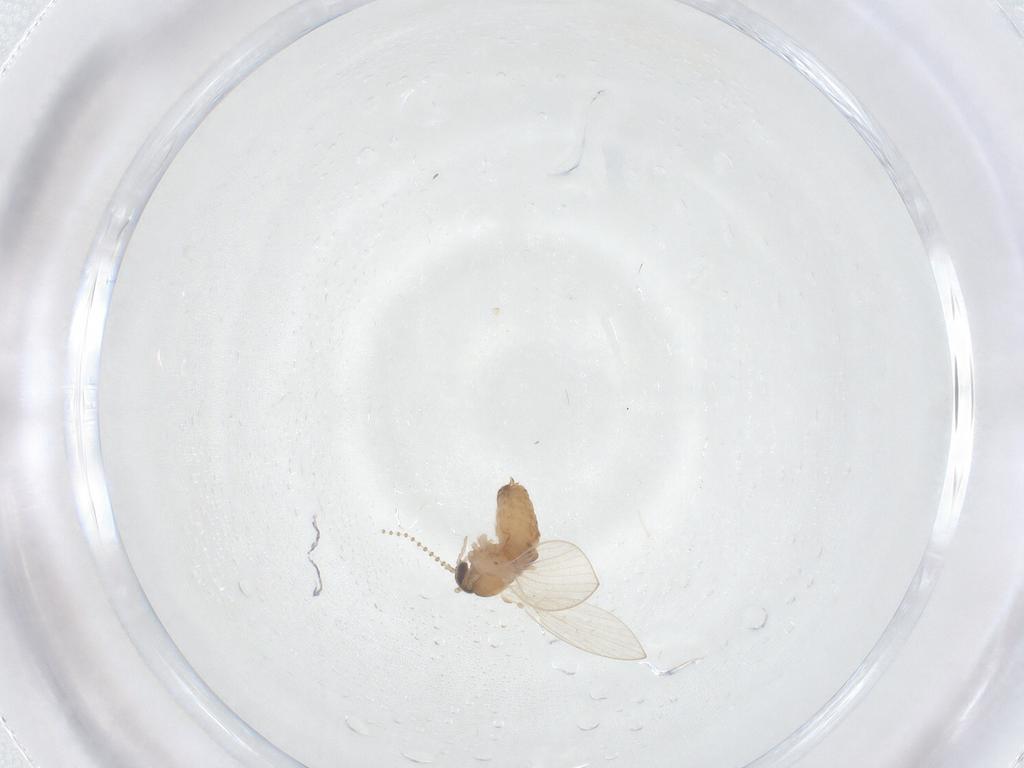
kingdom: Animalia
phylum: Arthropoda
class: Insecta
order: Diptera
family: Psychodidae
